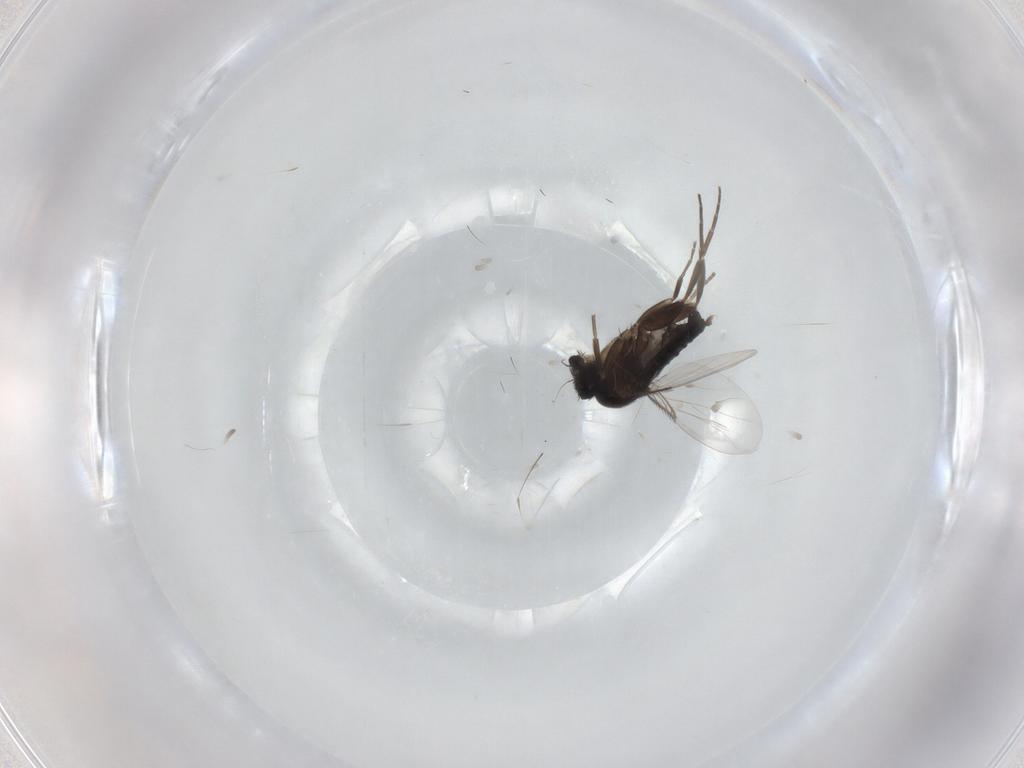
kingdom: Animalia
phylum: Arthropoda
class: Insecta
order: Diptera
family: Phoridae
